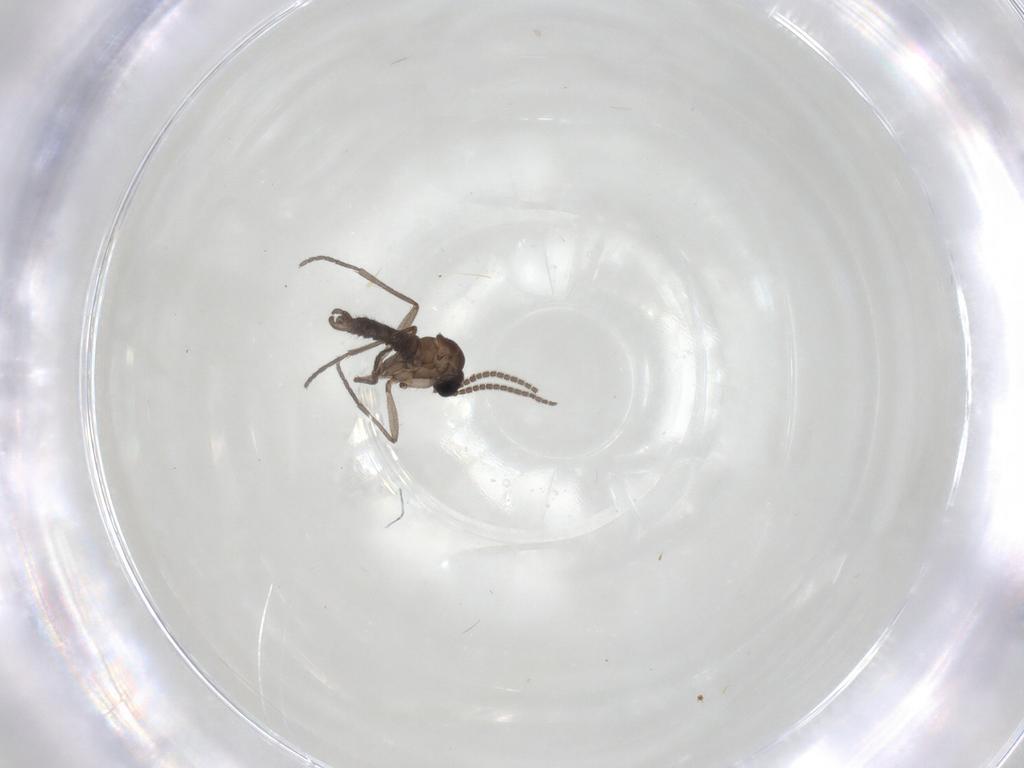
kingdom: Animalia
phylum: Arthropoda
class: Insecta
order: Diptera
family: Sciaridae
